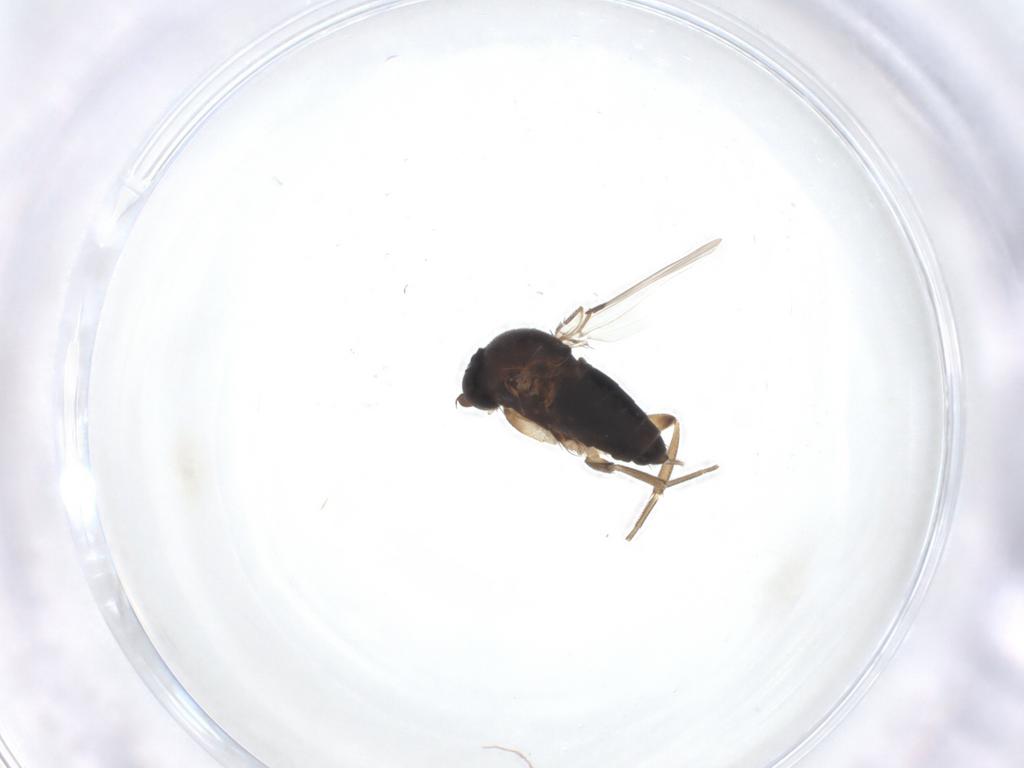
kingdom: Animalia
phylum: Arthropoda
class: Insecta
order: Diptera
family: Phoridae
